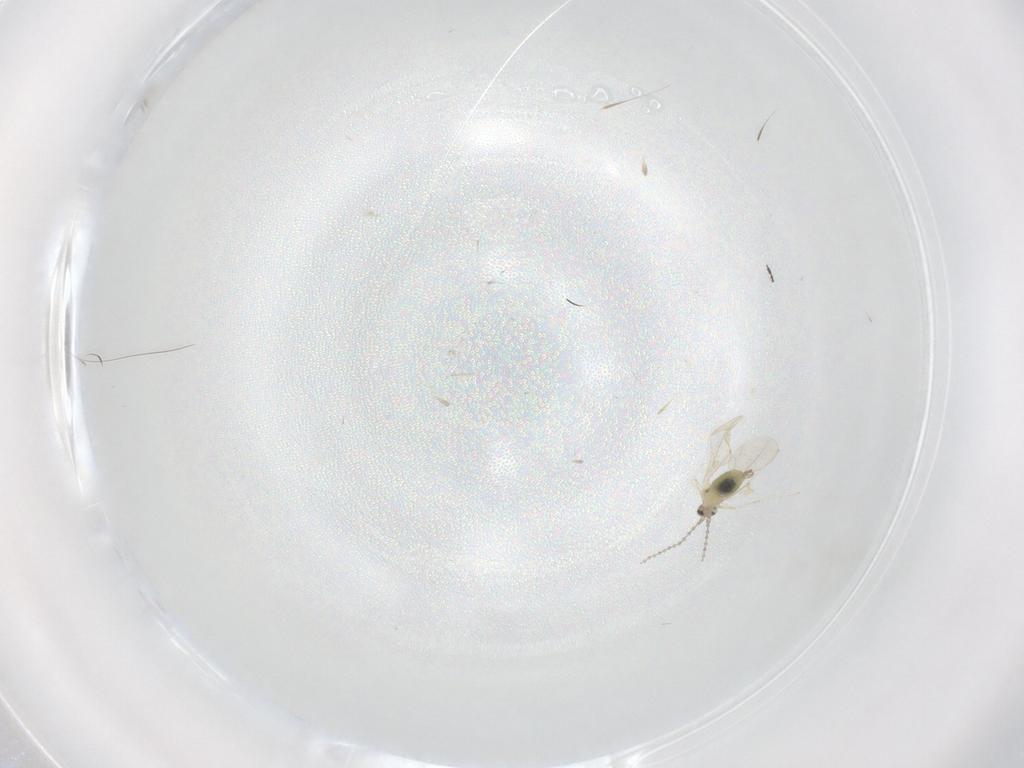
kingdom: Animalia
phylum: Arthropoda
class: Insecta
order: Diptera
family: Cecidomyiidae
